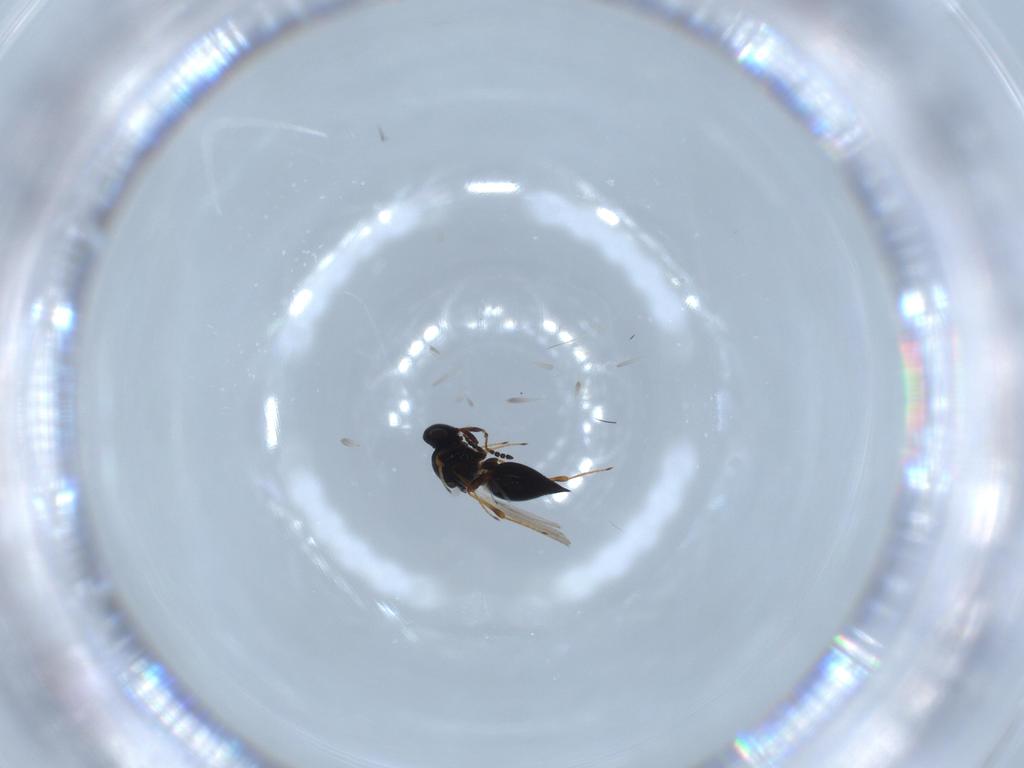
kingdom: Animalia
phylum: Arthropoda
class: Insecta
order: Hymenoptera
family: Platygastridae
